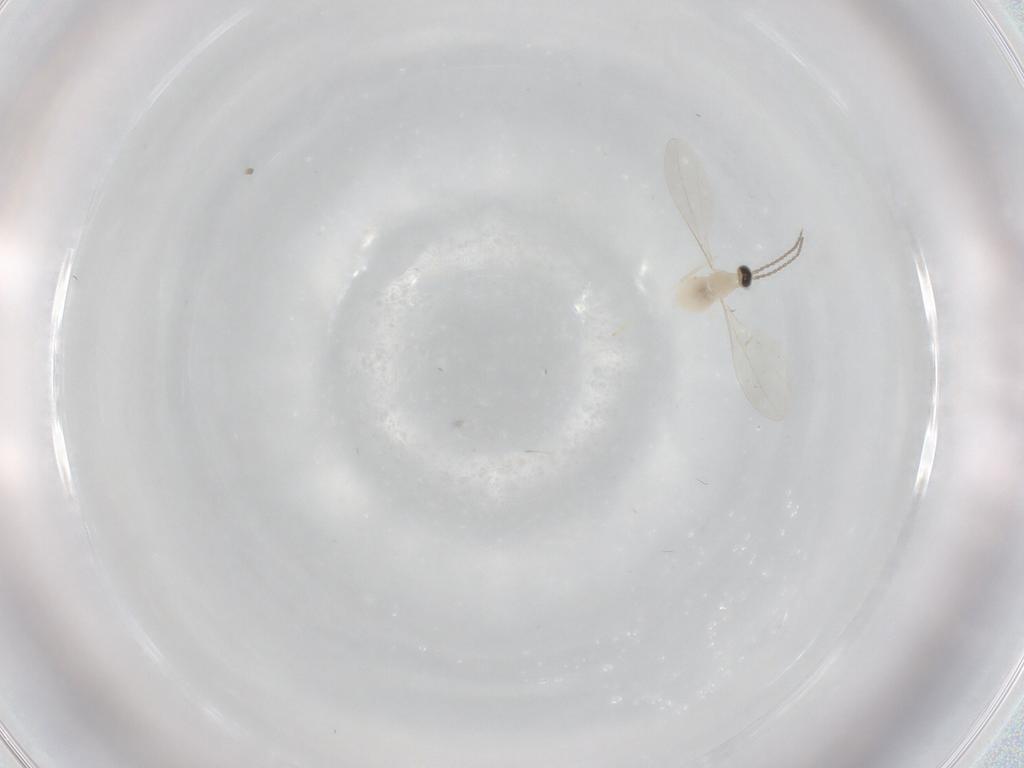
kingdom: Animalia
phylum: Arthropoda
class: Insecta
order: Diptera
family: Cecidomyiidae
